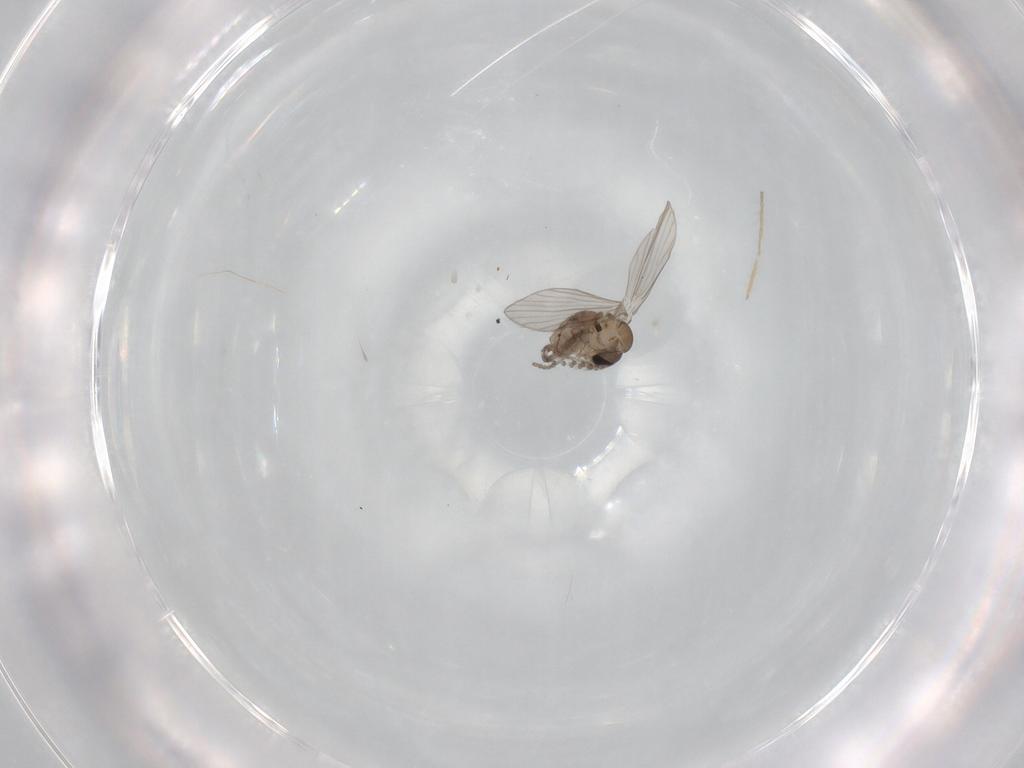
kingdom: Animalia
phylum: Arthropoda
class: Insecta
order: Diptera
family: Psychodidae
